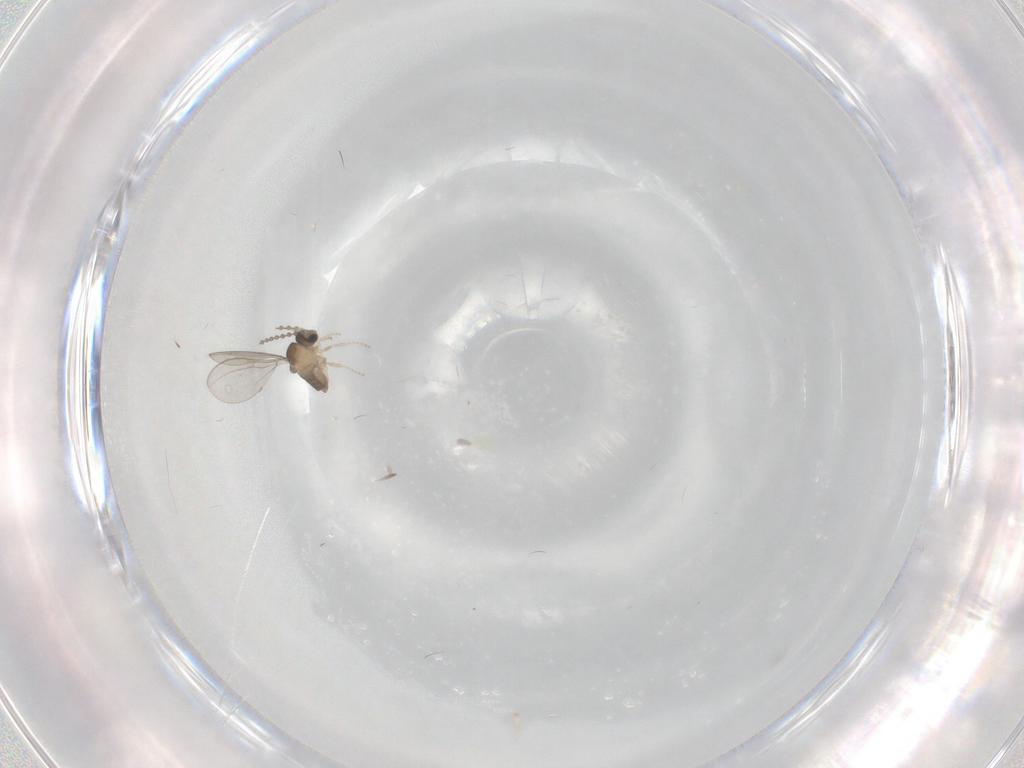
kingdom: Animalia
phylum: Arthropoda
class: Insecta
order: Diptera
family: Cecidomyiidae
